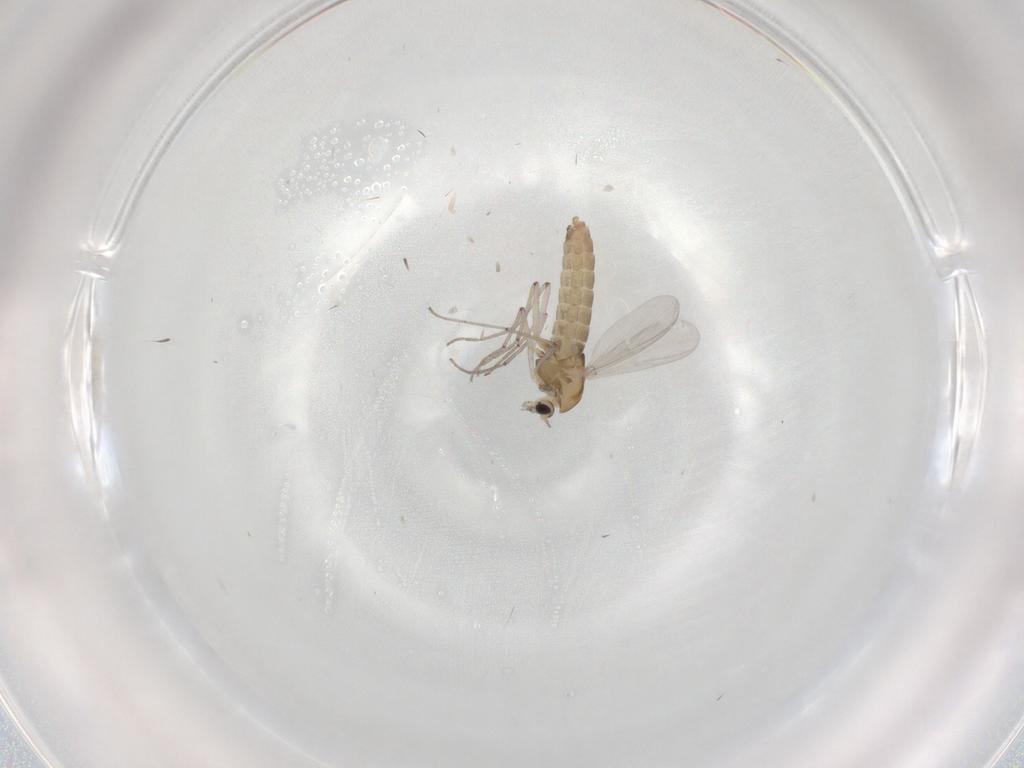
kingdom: Animalia
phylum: Arthropoda
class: Insecta
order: Diptera
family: Chironomidae
